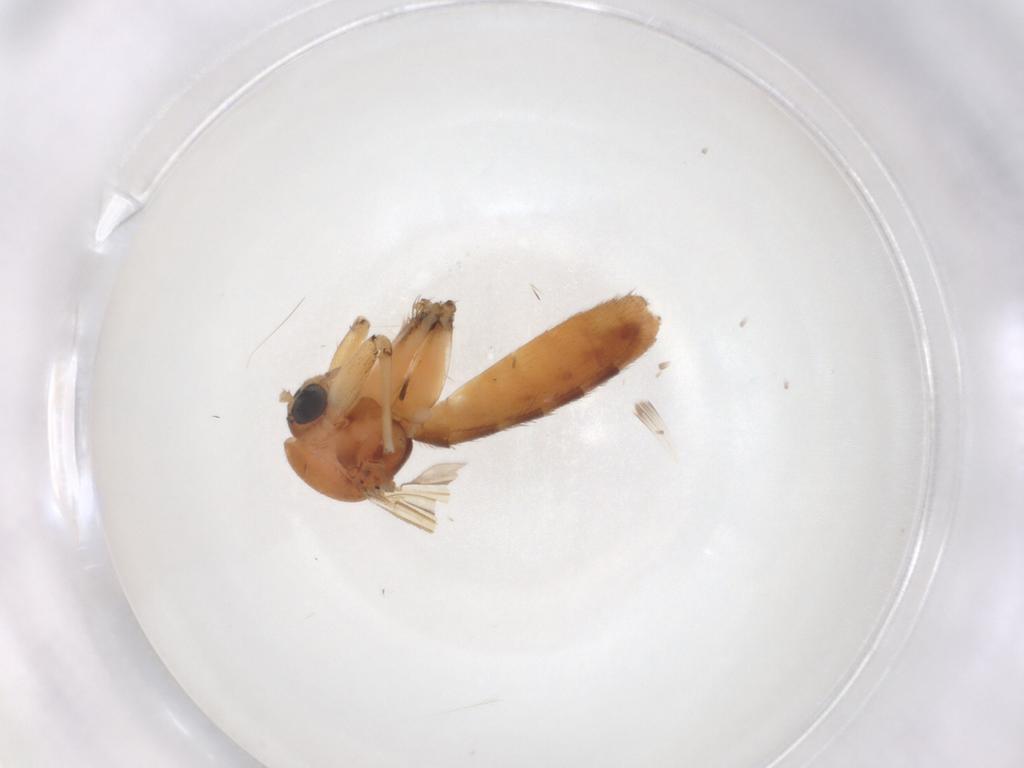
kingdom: Animalia
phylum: Arthropoda
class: Insecta
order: Diptera
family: Mycetophilidae
